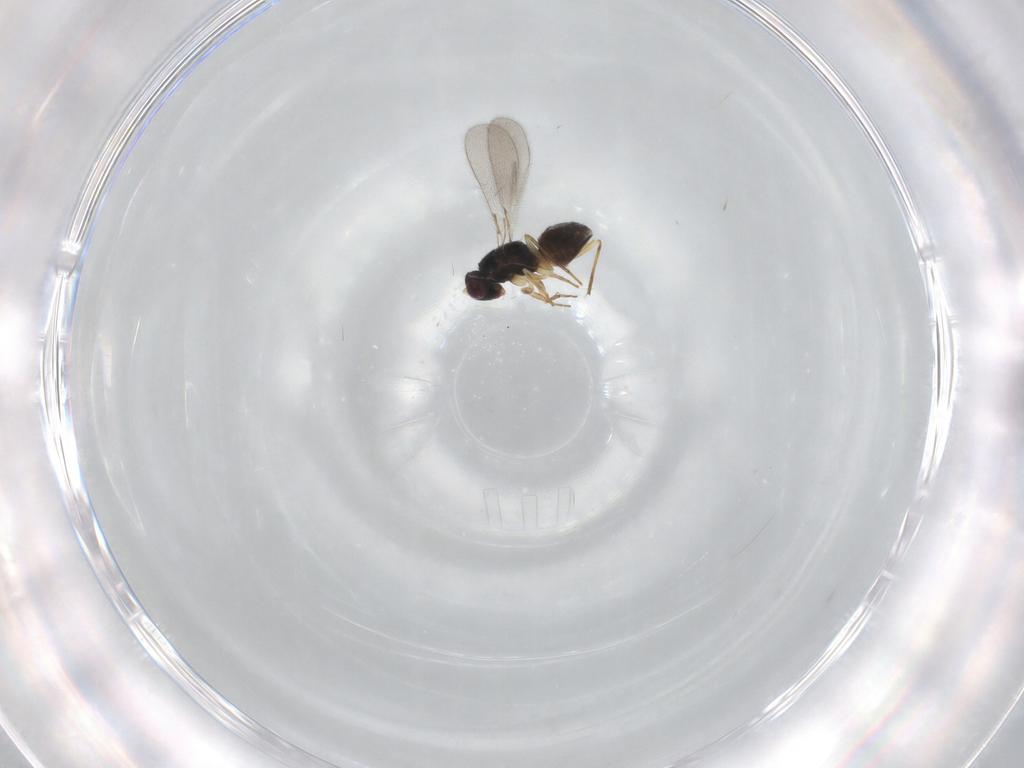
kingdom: Animalia
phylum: Arthropoda
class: Insecta
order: Hymenoptera
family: Mymaridae
